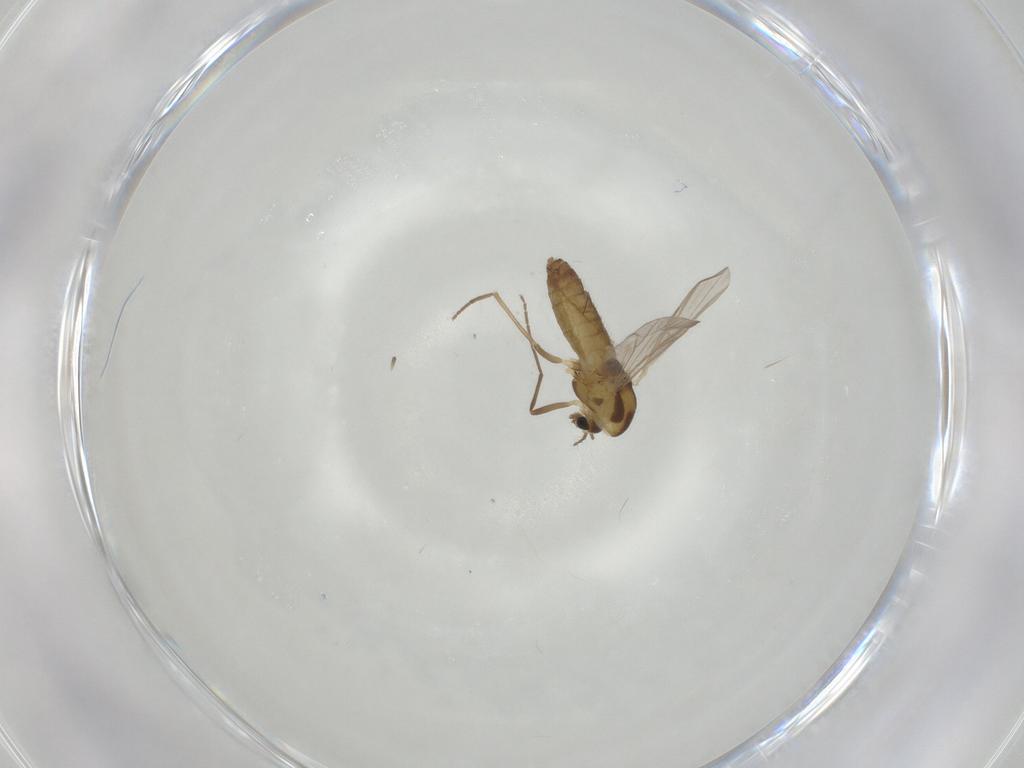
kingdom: Animalia
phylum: Arthropoda
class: Insecta
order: Diptera
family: Chironomidae
